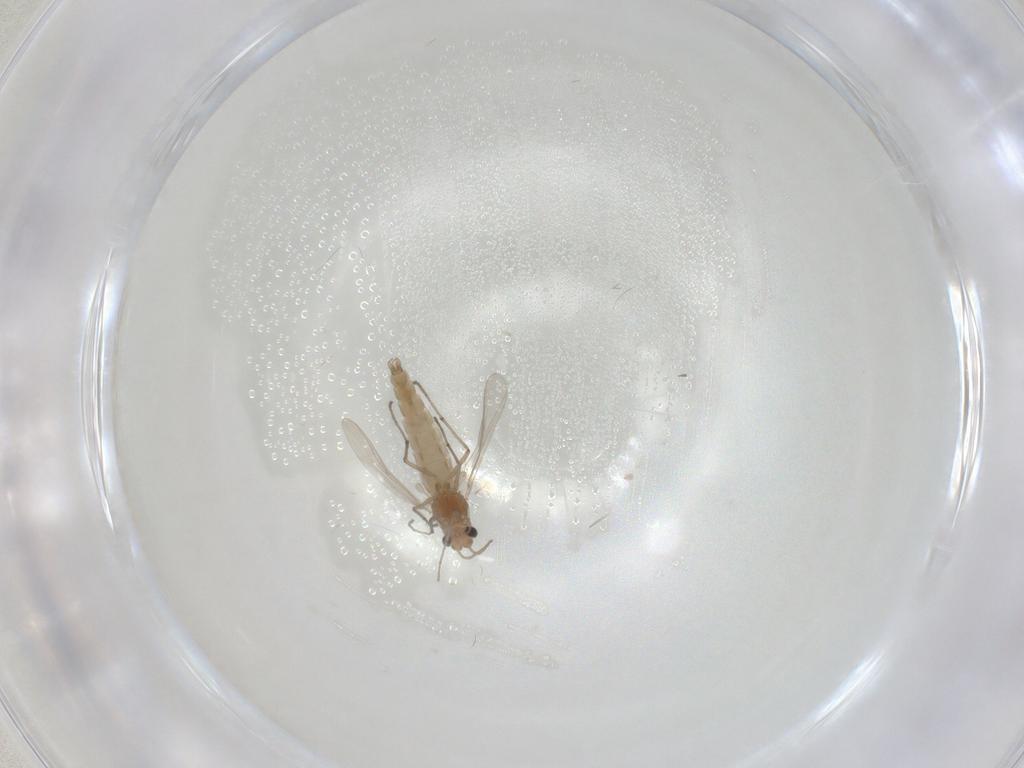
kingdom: Animalia
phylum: Arthropoda
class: Insecta
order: Diptera
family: Chironomidae
